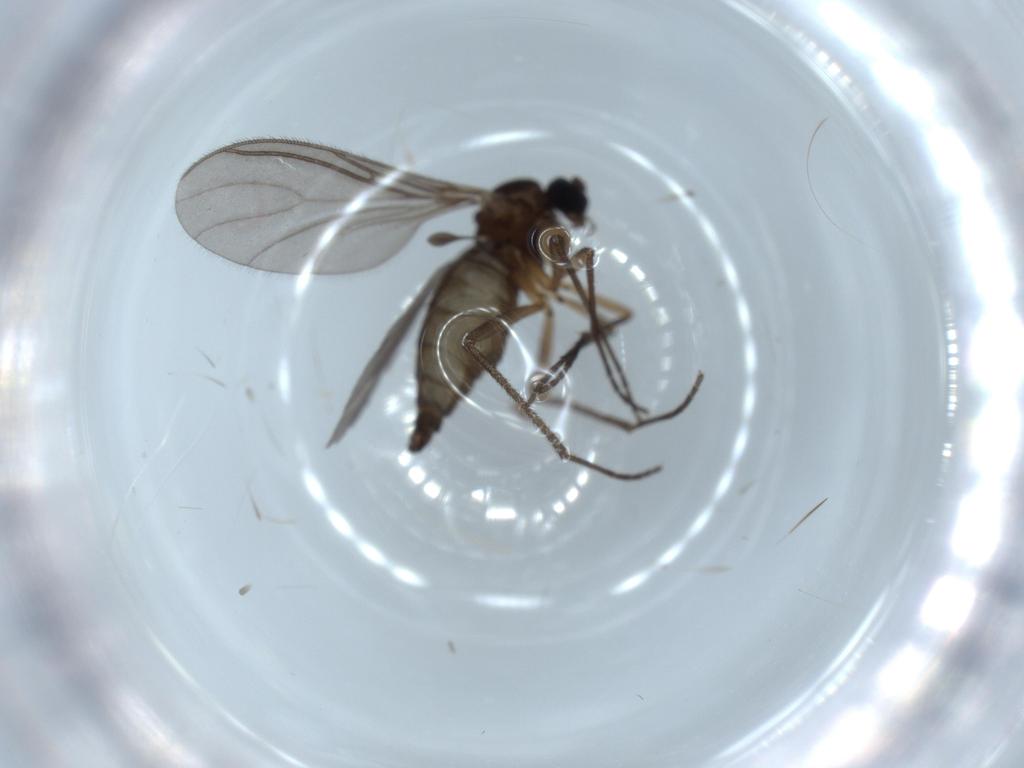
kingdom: Animalia
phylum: Arthropoda
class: Insecta
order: Diptera
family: Sciaridae
